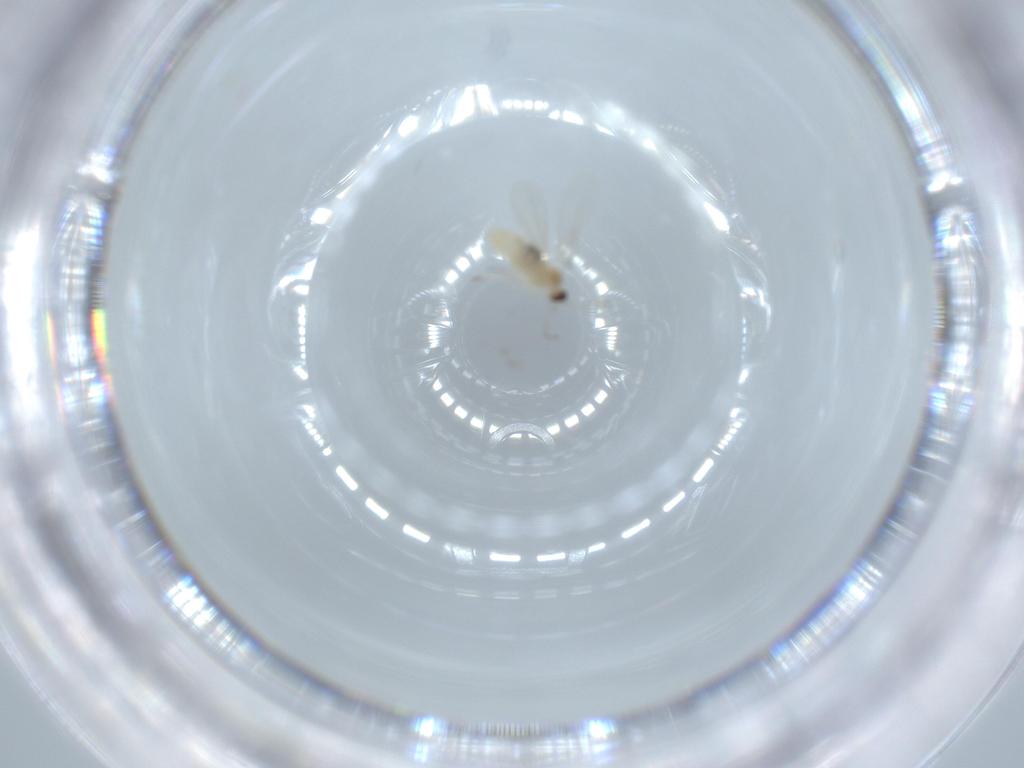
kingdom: Animalia
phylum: Arthropoda
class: Insecta
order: Diptera
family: Cecidomyiidae
